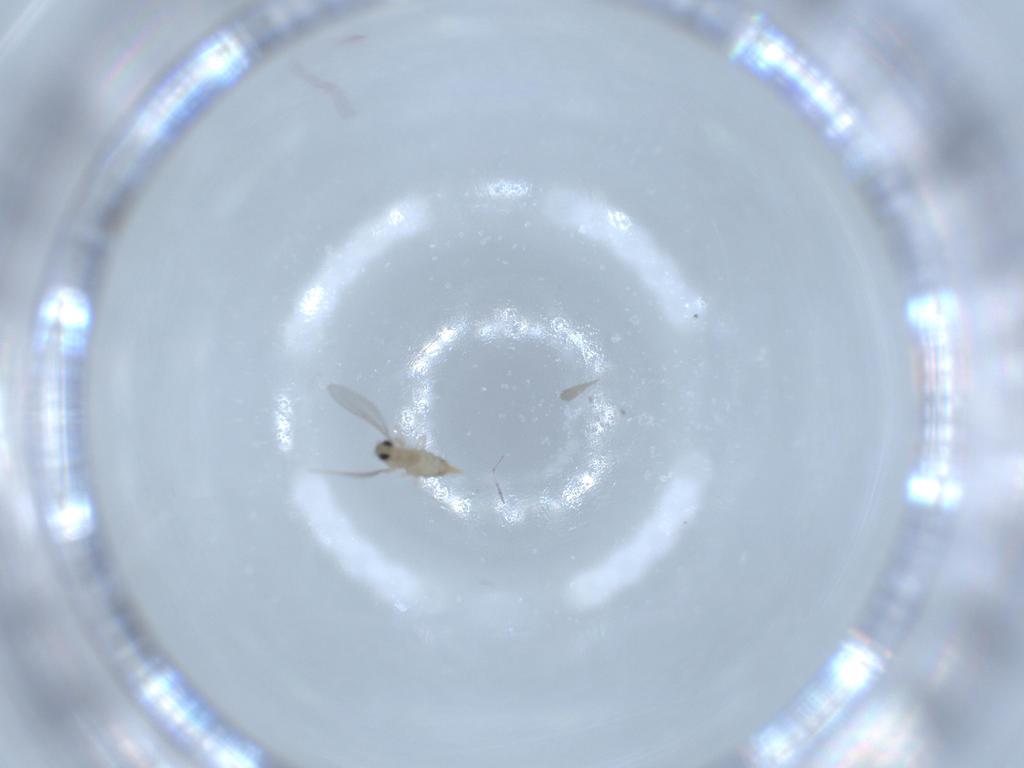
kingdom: Animalia
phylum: Arthropoda
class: Insecta
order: Diptera
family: Cecidomyiidae
